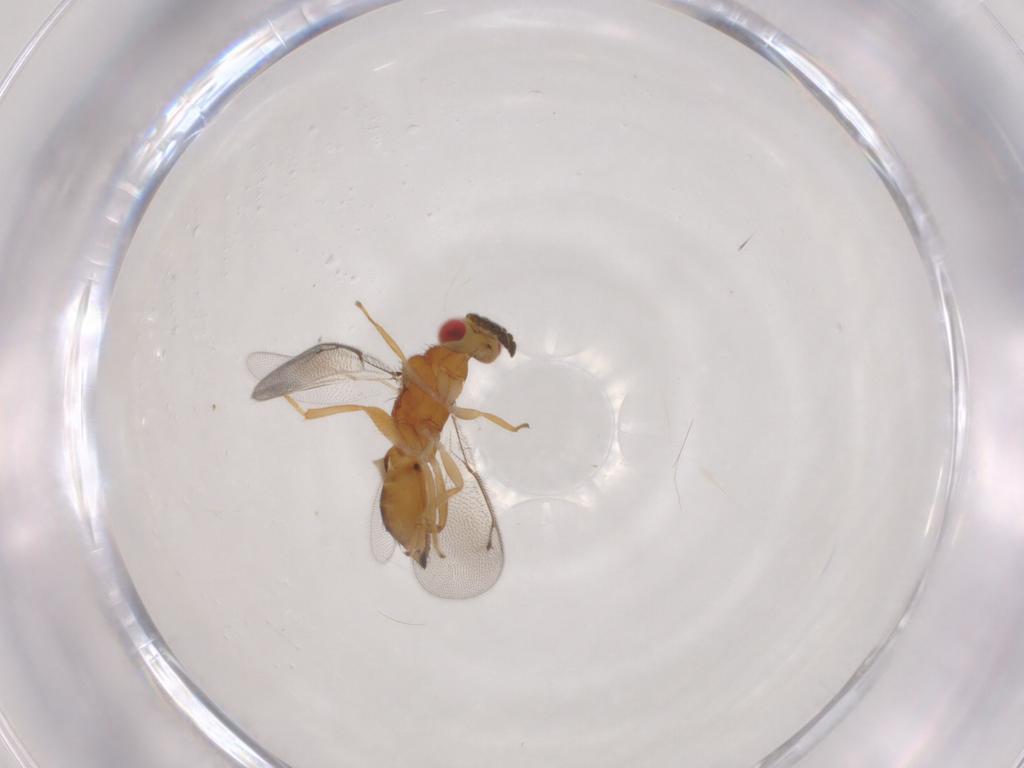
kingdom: Animalia
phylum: Arthropoda
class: Insecta
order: Hymenoptera
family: Eulophidae
